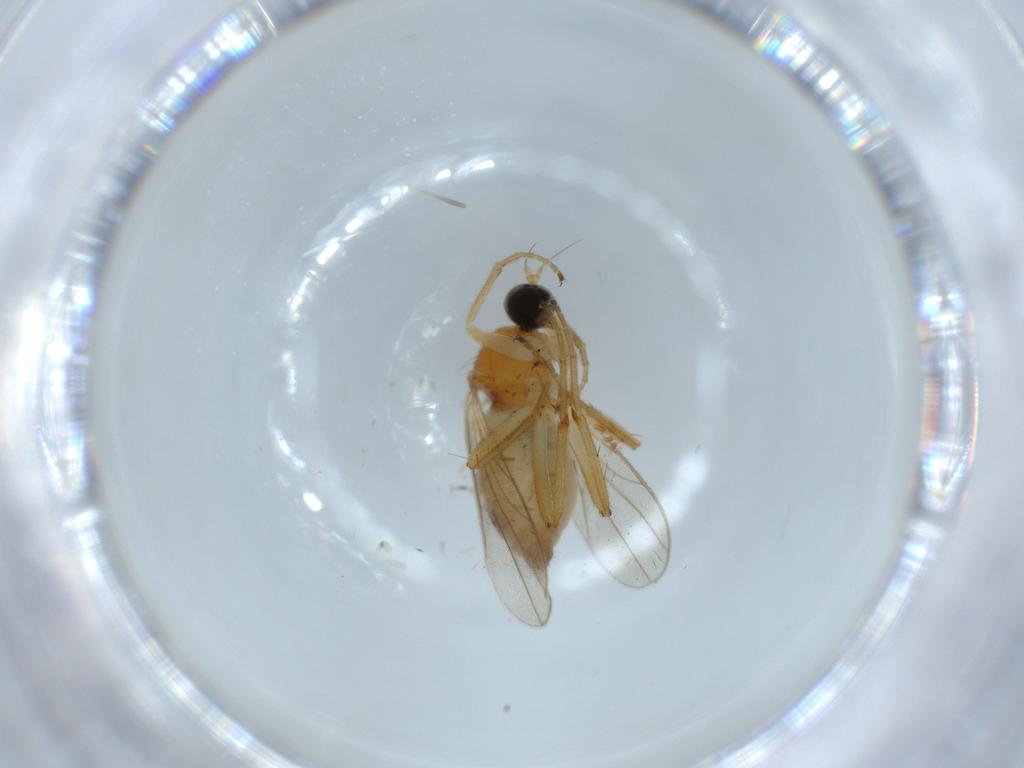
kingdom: Animalia
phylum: Arthropoda
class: Insecta
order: Diptera
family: Hybotidae
